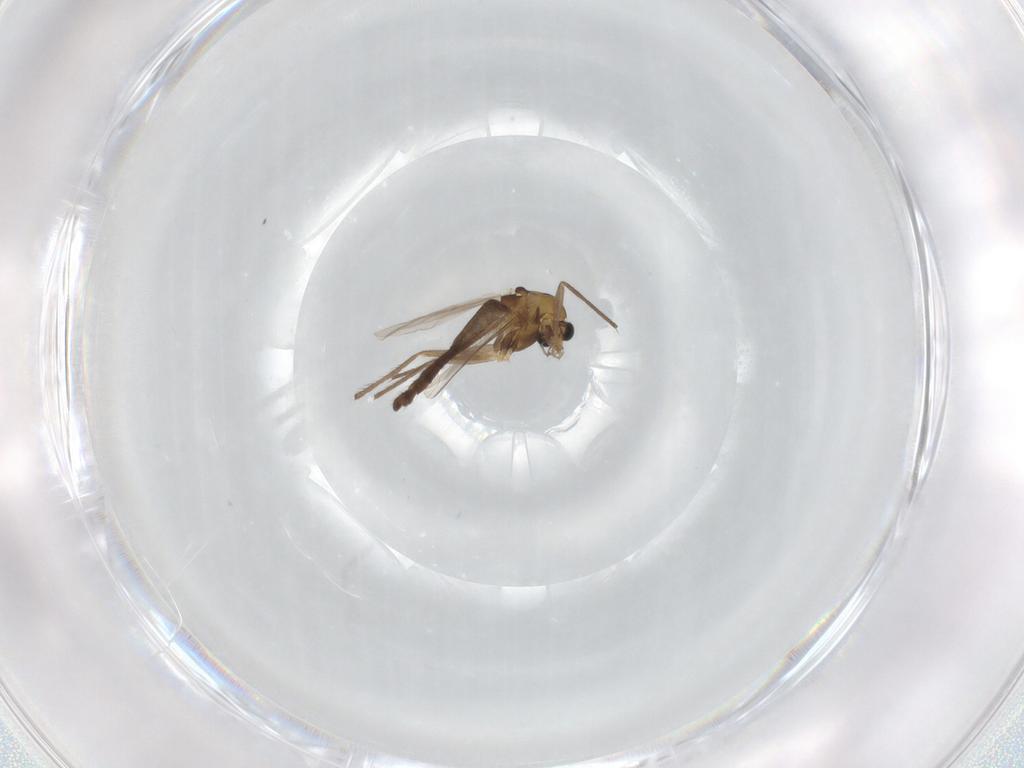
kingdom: Animalia
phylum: Arthropoda
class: Insecta
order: Diptera
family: Chironomidae
